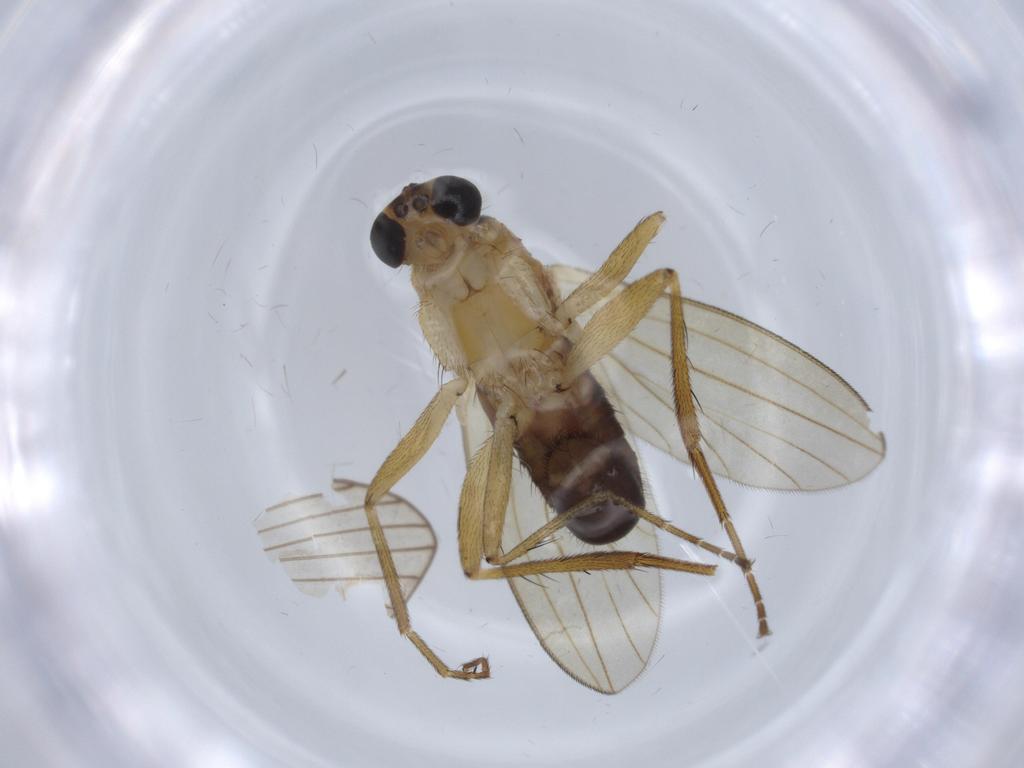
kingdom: Animalia
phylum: Arthropoda
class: Insecta
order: Diptera
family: Lonchopteridae
